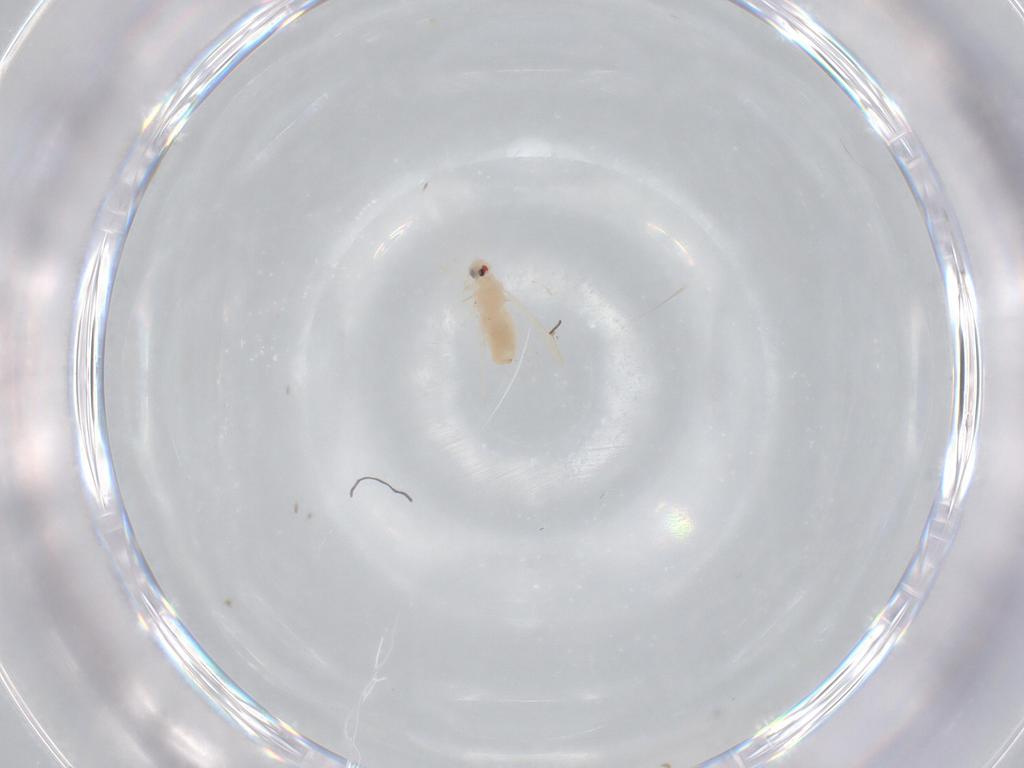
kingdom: Animalia
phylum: Arthropoda
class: Insecta
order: Hemiptera
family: Aleyrodidae
